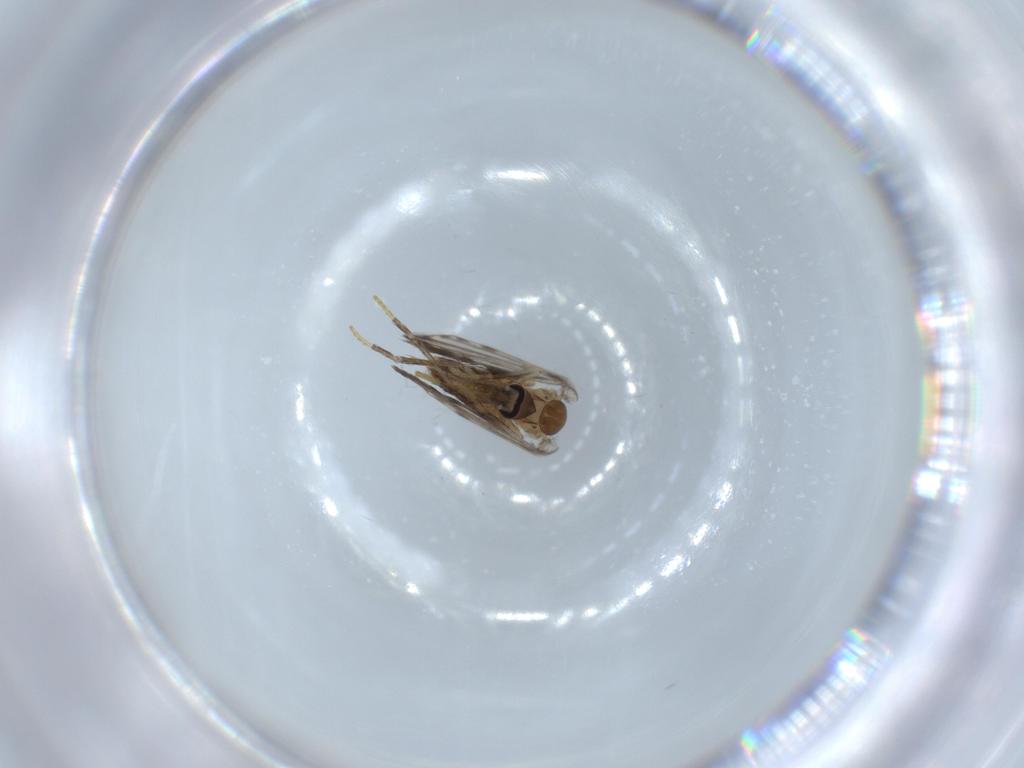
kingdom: Animalia
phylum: Arthropoda
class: Insecta
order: Diptera
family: Psychodidae
